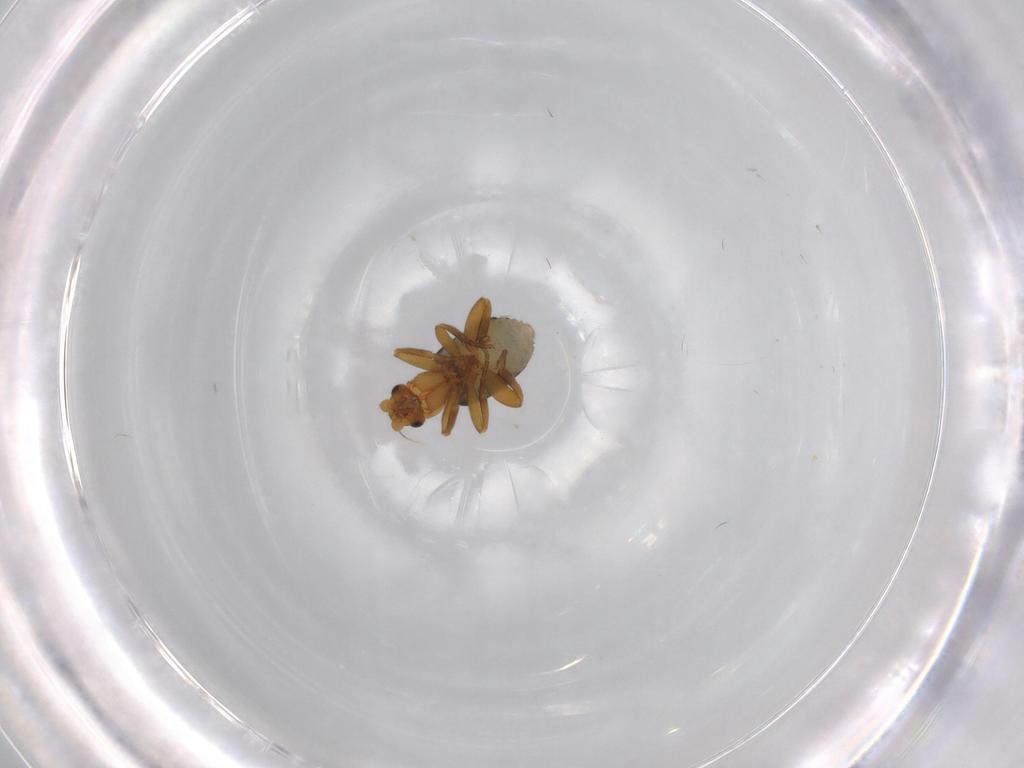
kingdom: Animalia
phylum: Arthropoda
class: Insecta
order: Diptera
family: Phoridae
